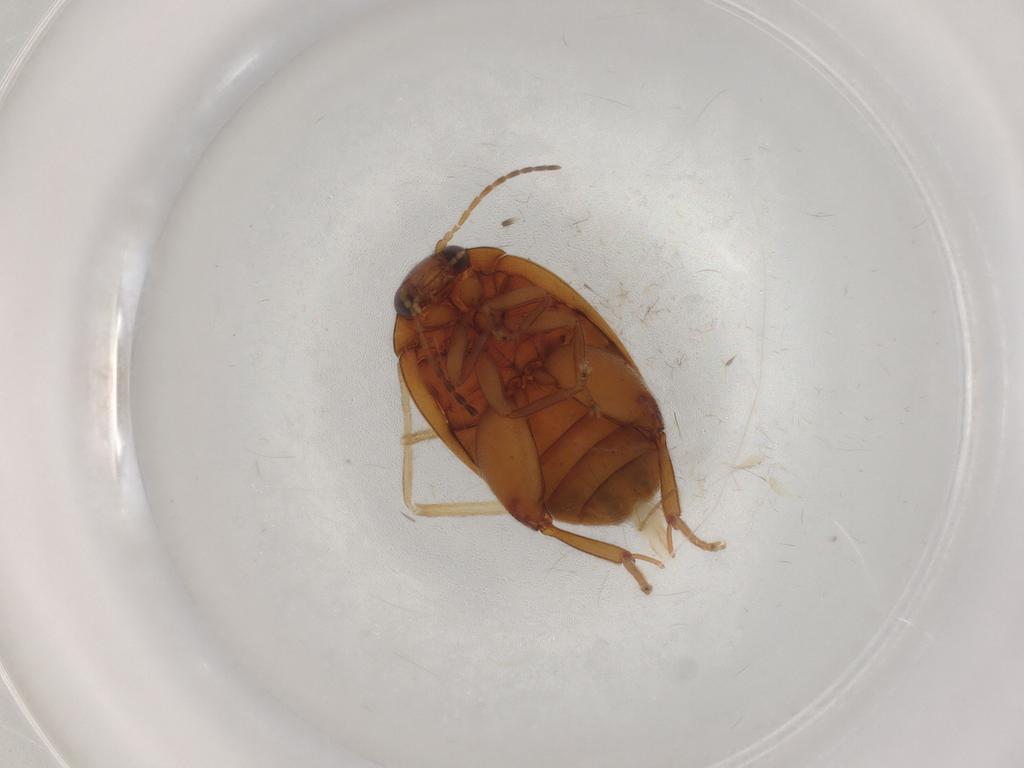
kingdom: Animalia
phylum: Arthropoda
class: Insecta
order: Coleoptera
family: Scirtidae
